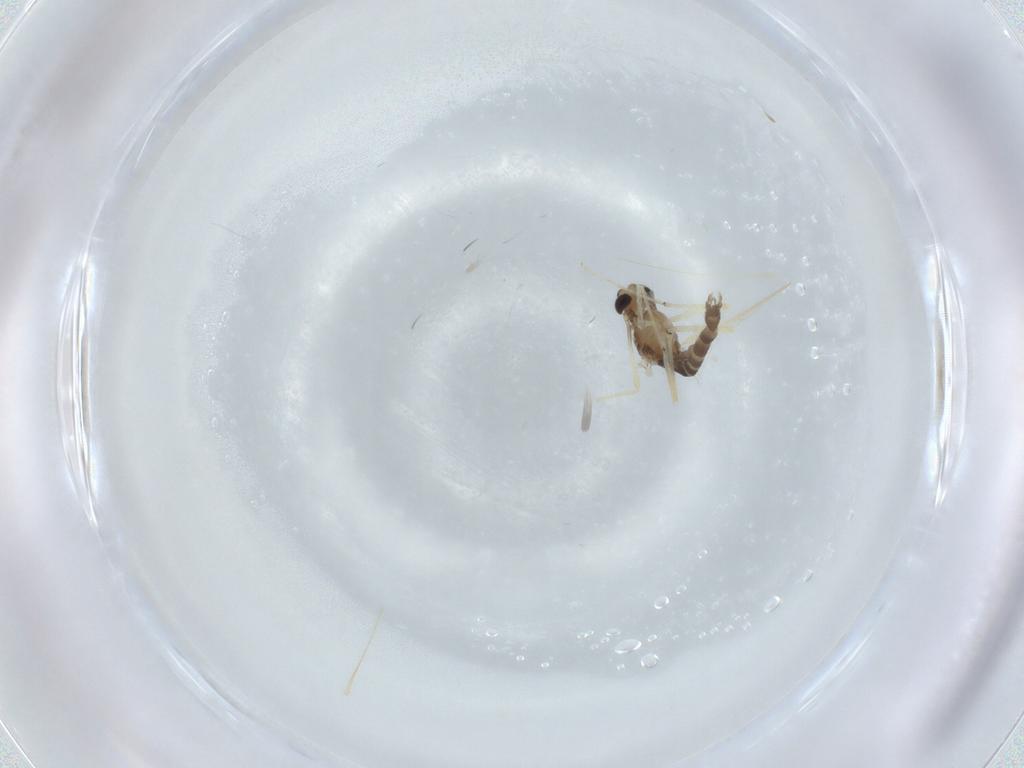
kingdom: Animalia
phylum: Arthropoda
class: Insecta
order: Diptera
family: Chironomidae
